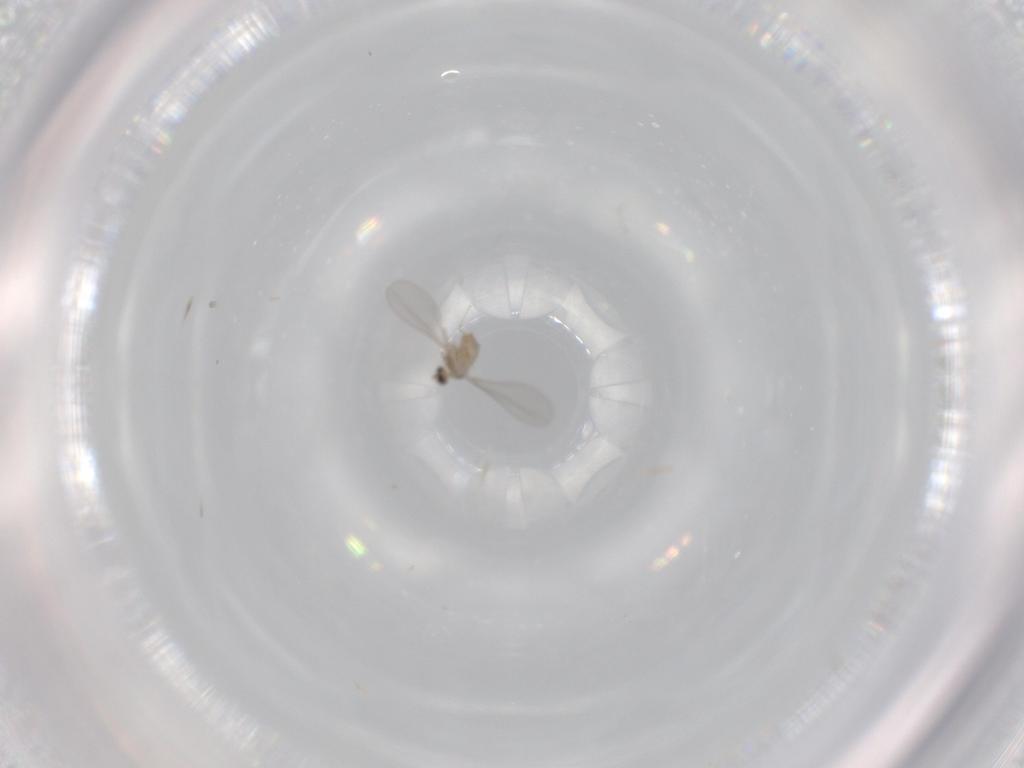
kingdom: Animalia
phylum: Arthropoda
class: Insecta
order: Diptera
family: Cecidomyiidae
